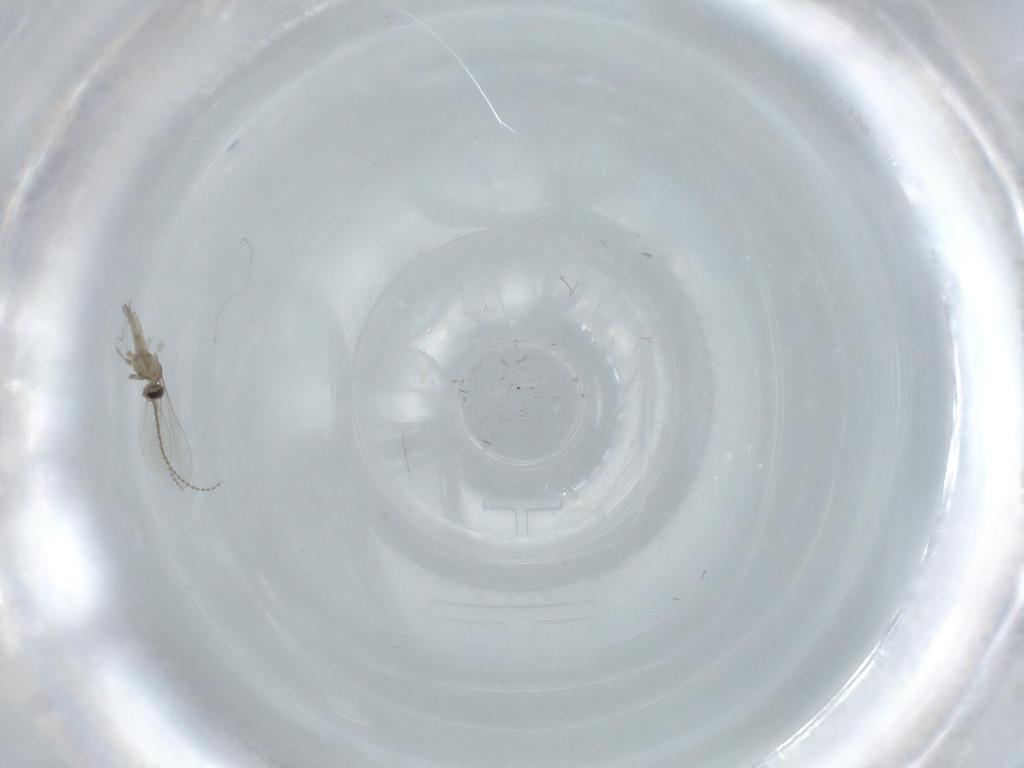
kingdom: Animalia
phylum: Arthropoda
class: Insecta
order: Diptera
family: Cecidomyiidae
